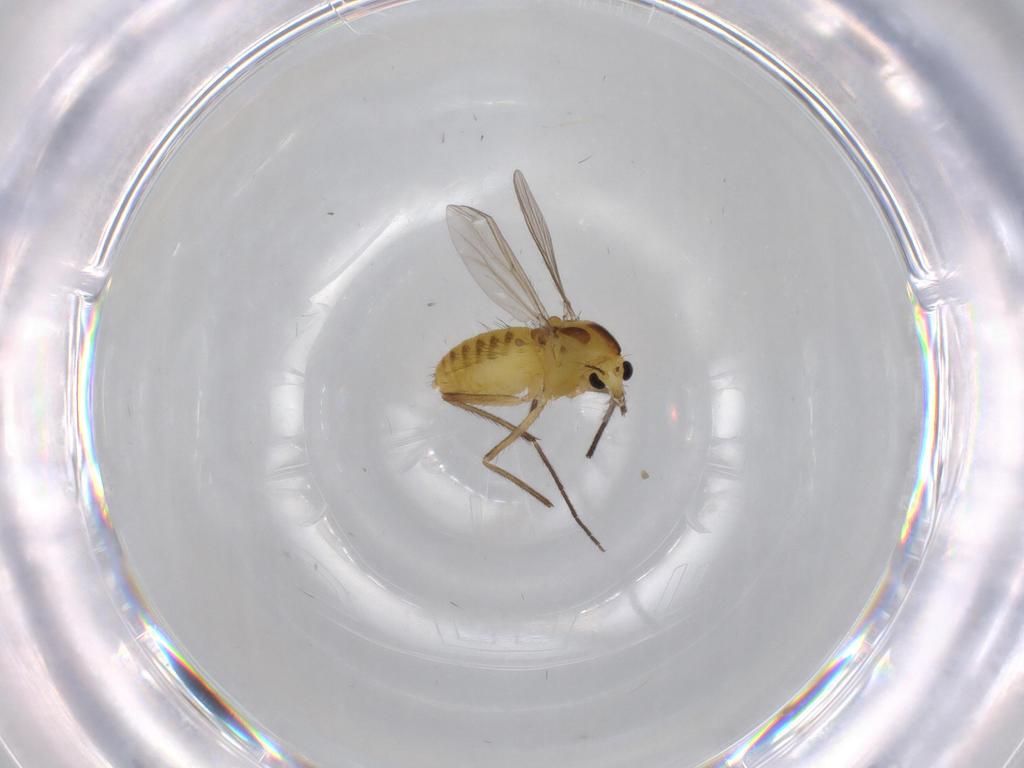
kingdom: Animalia
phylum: Arthropoda
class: Insecta
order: Diptera
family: Chironomidae
